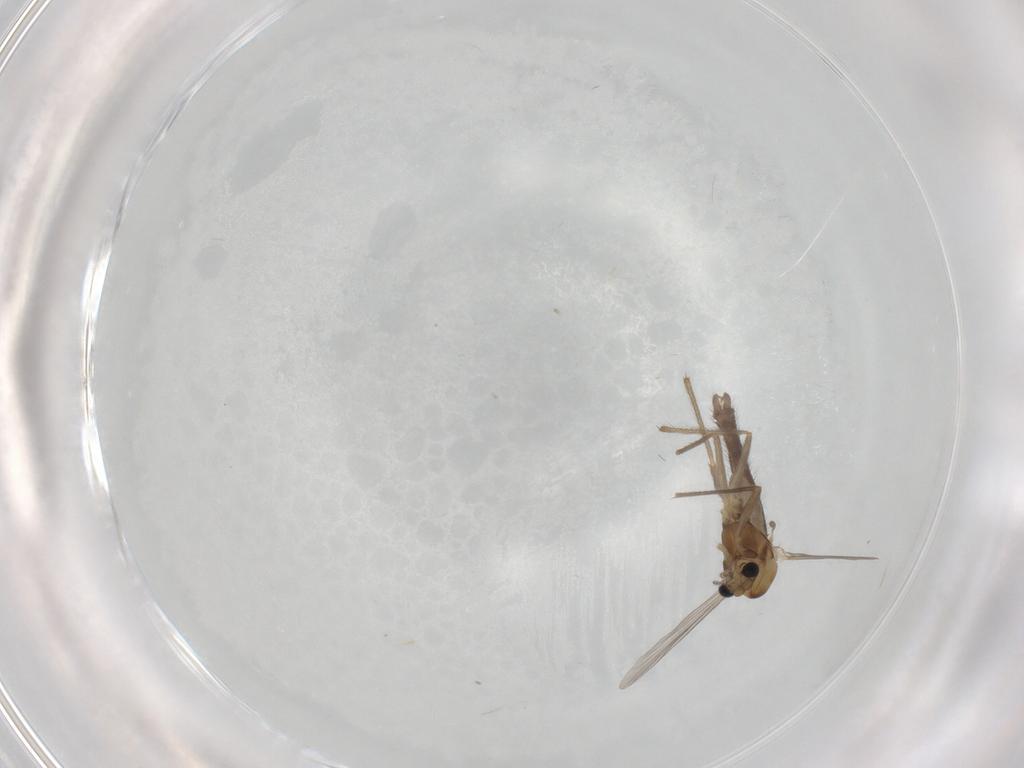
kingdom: Animalia
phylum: Arthropoda
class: Insecta
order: Diptera
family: Chironomidae
